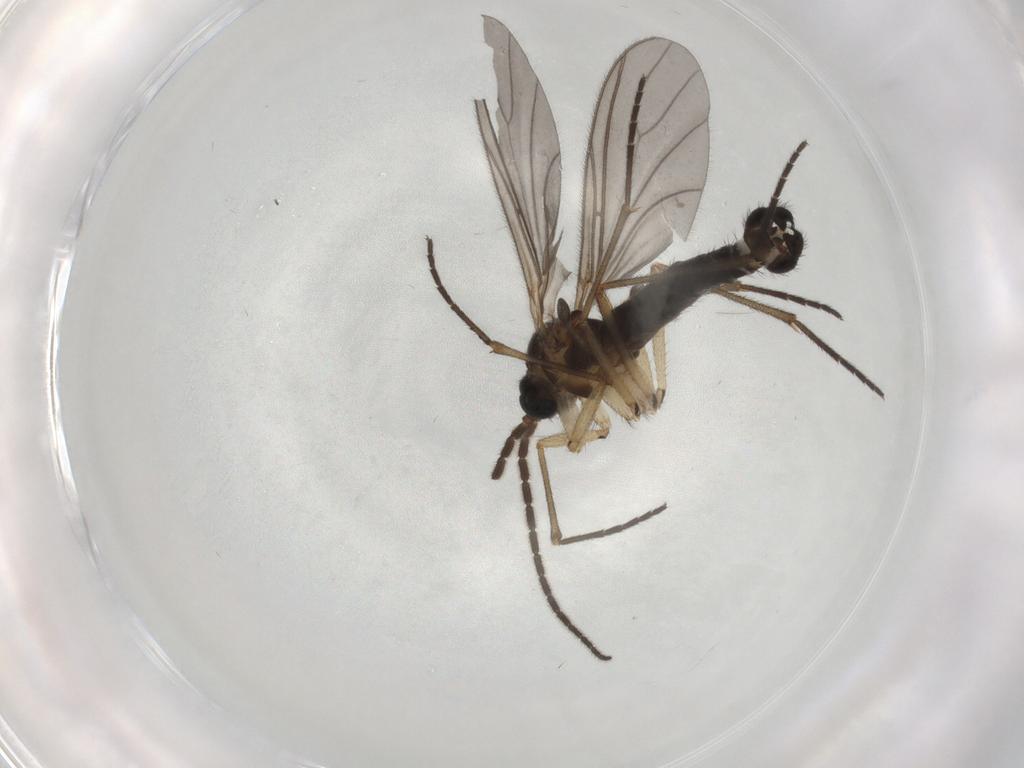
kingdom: Animalia
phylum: Arthropoda
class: Insecta
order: Diptera
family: Sciaridae
